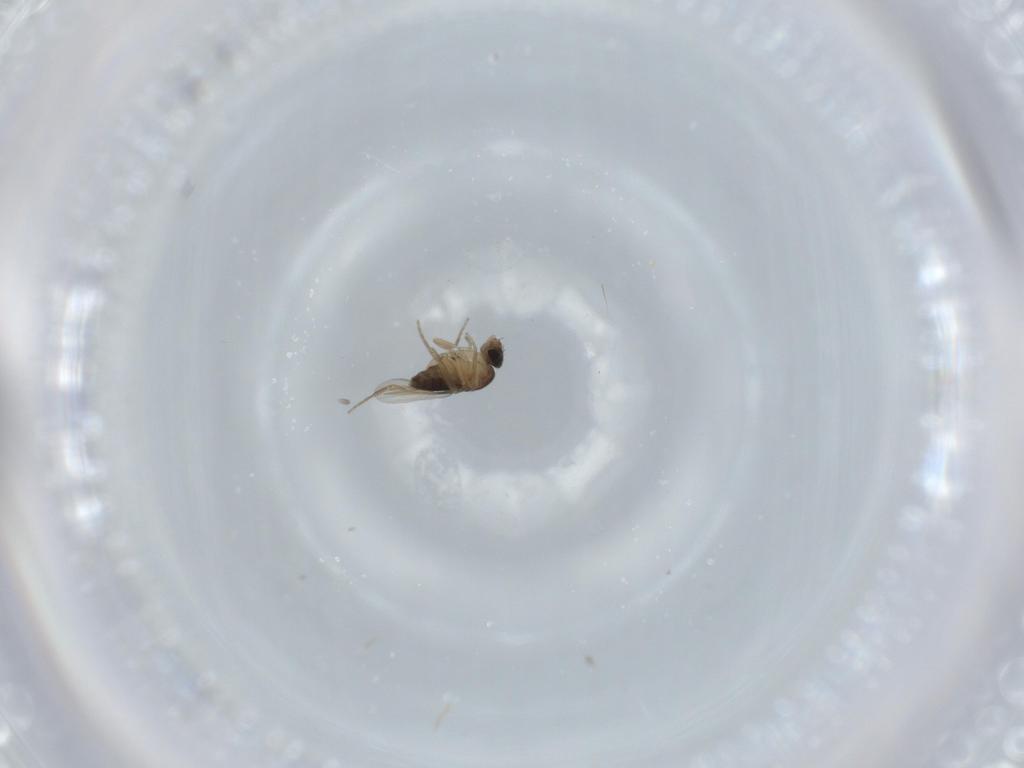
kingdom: Animalia
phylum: Arthropoda
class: Insecta
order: Diptera
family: Phoridae
